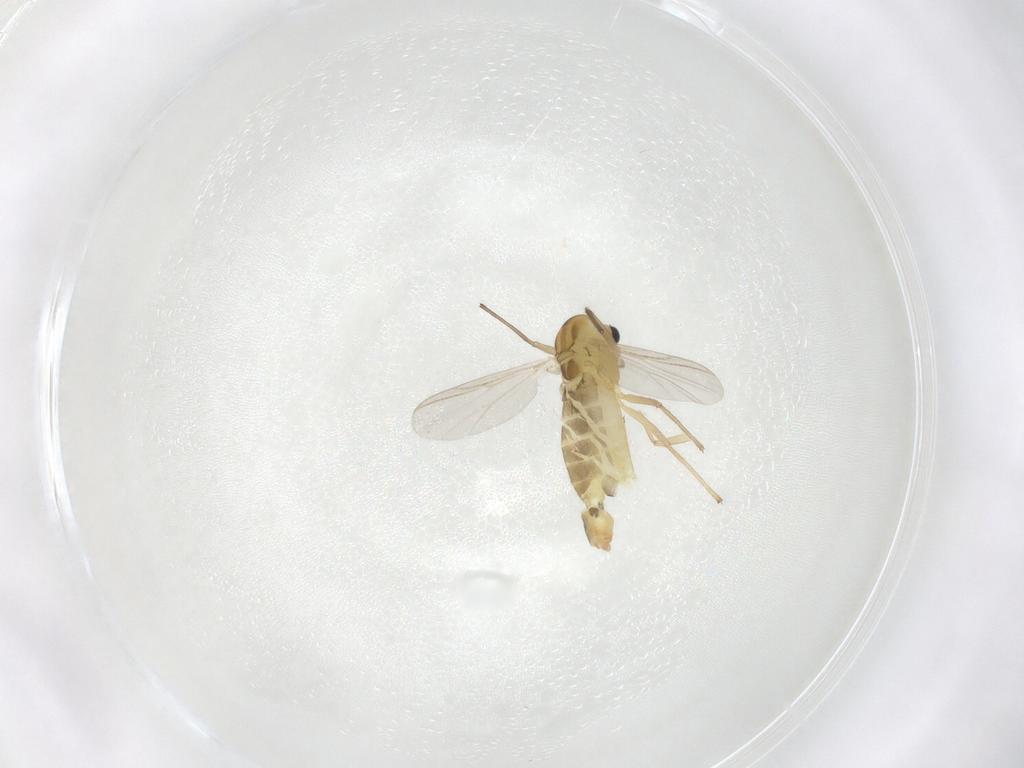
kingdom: Animalia
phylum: Arthropoda
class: Insecta
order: Diptera
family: Chironomidae
